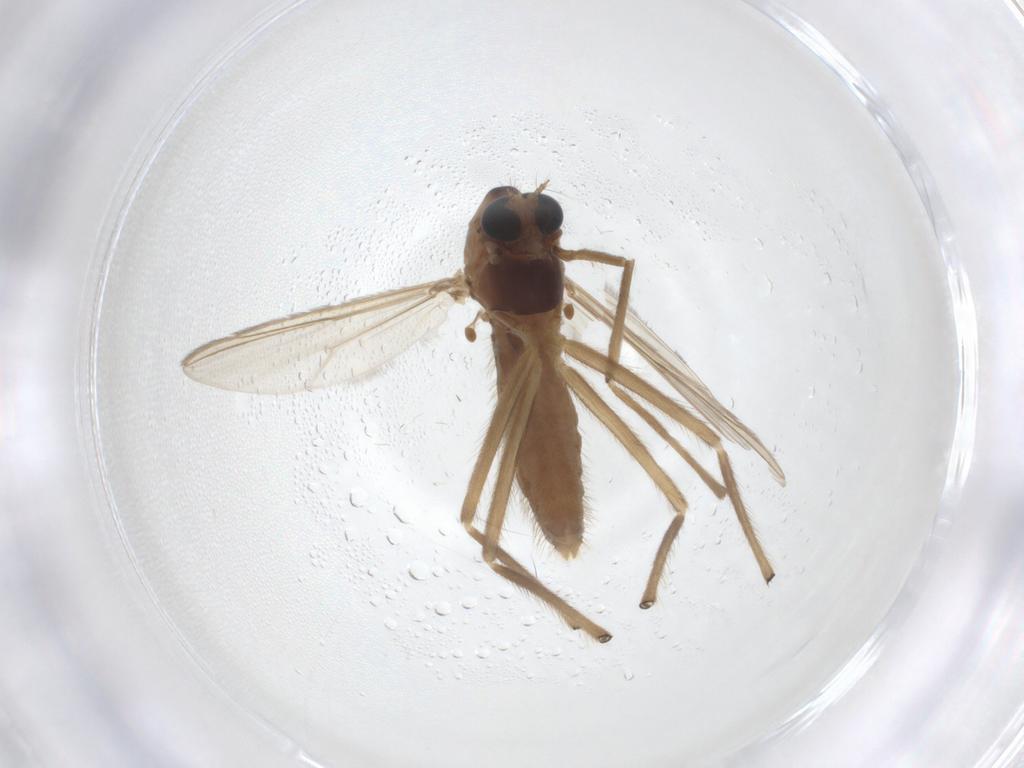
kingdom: Animalia
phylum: Arthropoda
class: Insecta
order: Diptera
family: Chironomidae
